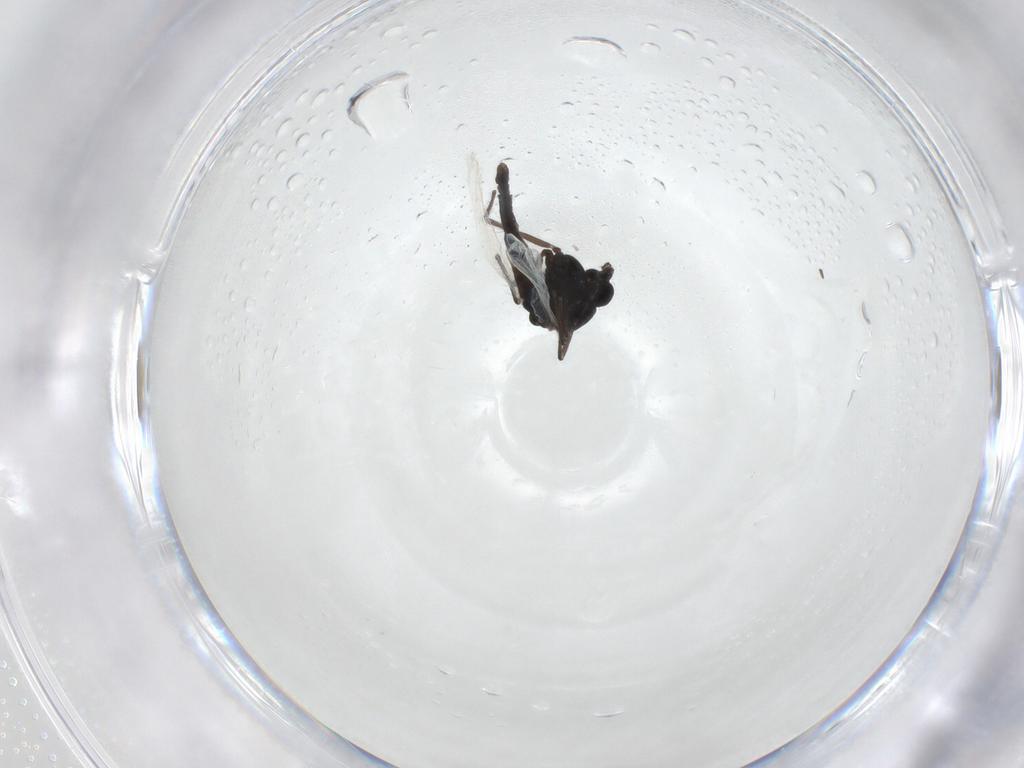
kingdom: Animalia
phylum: Arthropoda
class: Insecta
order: Diptera
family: Chironomidae
